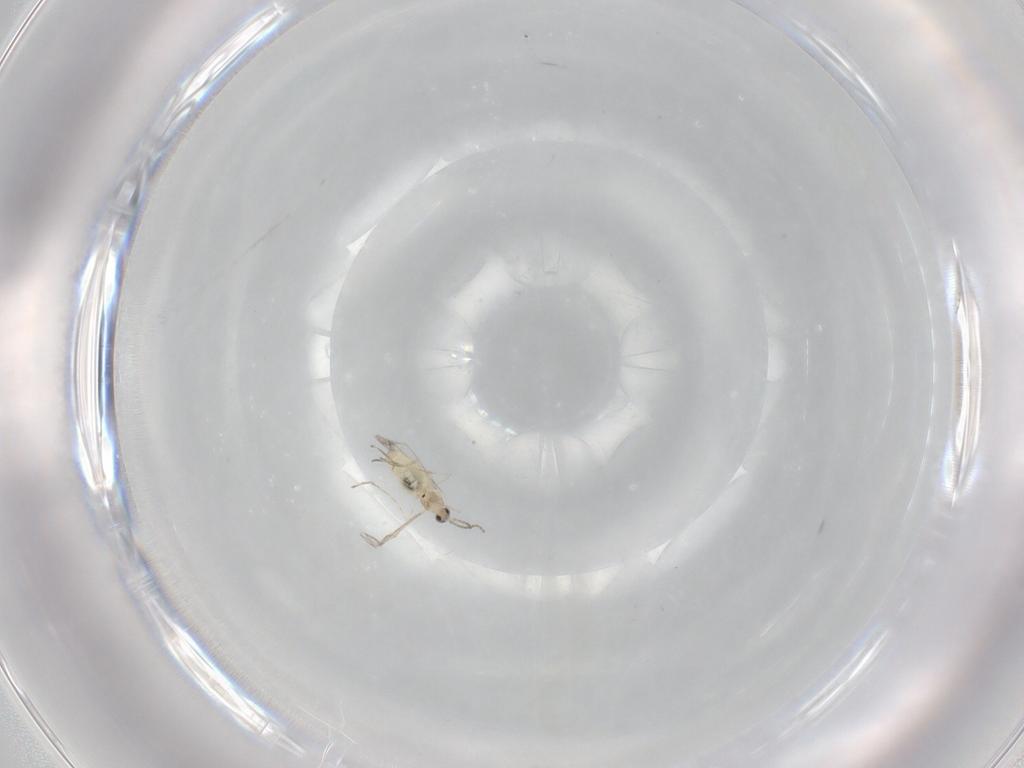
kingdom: Animalia
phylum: Arthropoda
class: Insecta
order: Diptera
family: Cecidomyiidae
